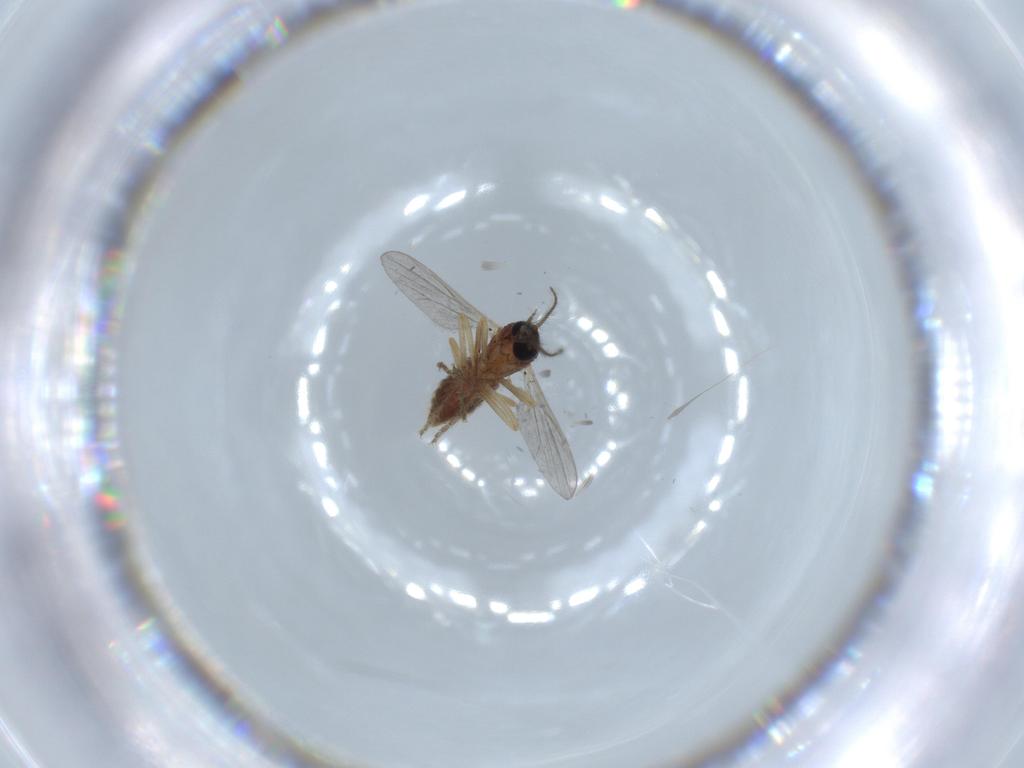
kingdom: Animalia
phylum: Arthropoda
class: Insecta
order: Diptera
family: Ceratopogonidae
